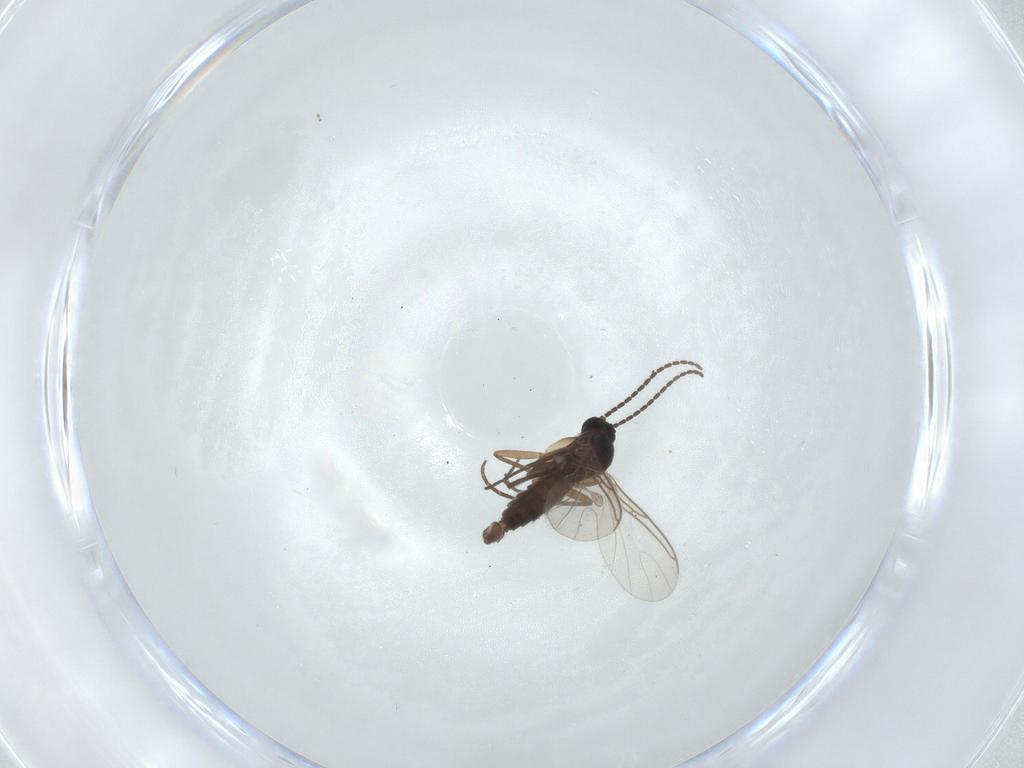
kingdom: Animalia
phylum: Arthropoda
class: Insecta
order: Diptera
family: Sciaridae
